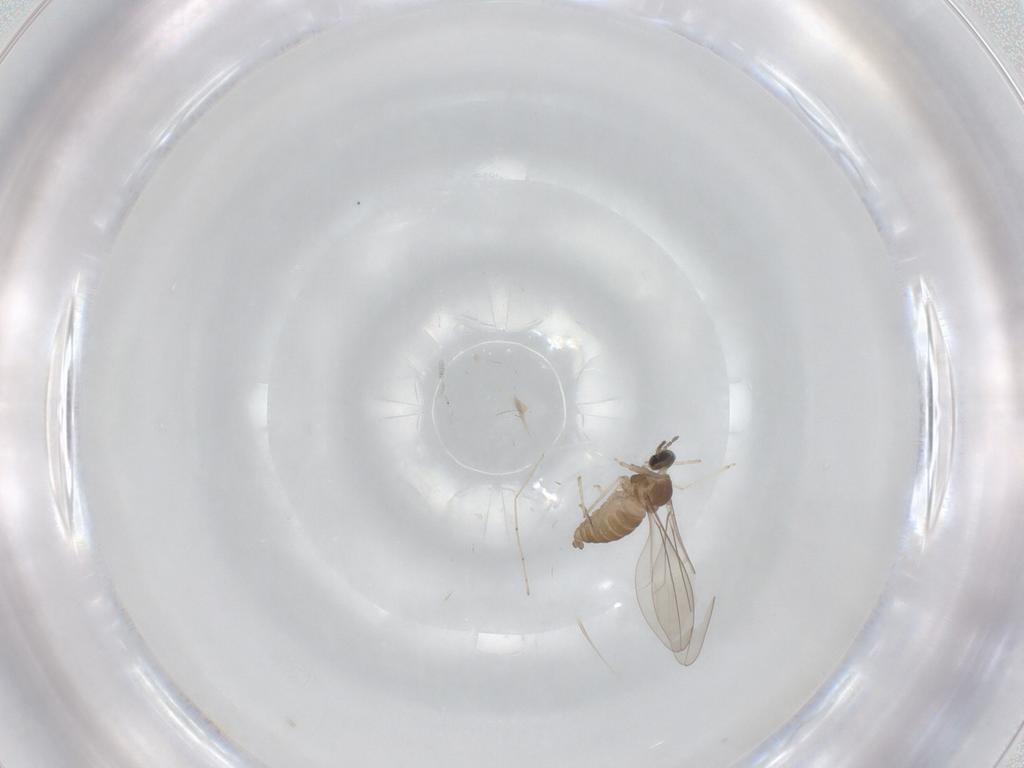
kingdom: Animalia
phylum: Arthropoda
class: Insecta
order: Diptera
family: Cecidomyiidae
